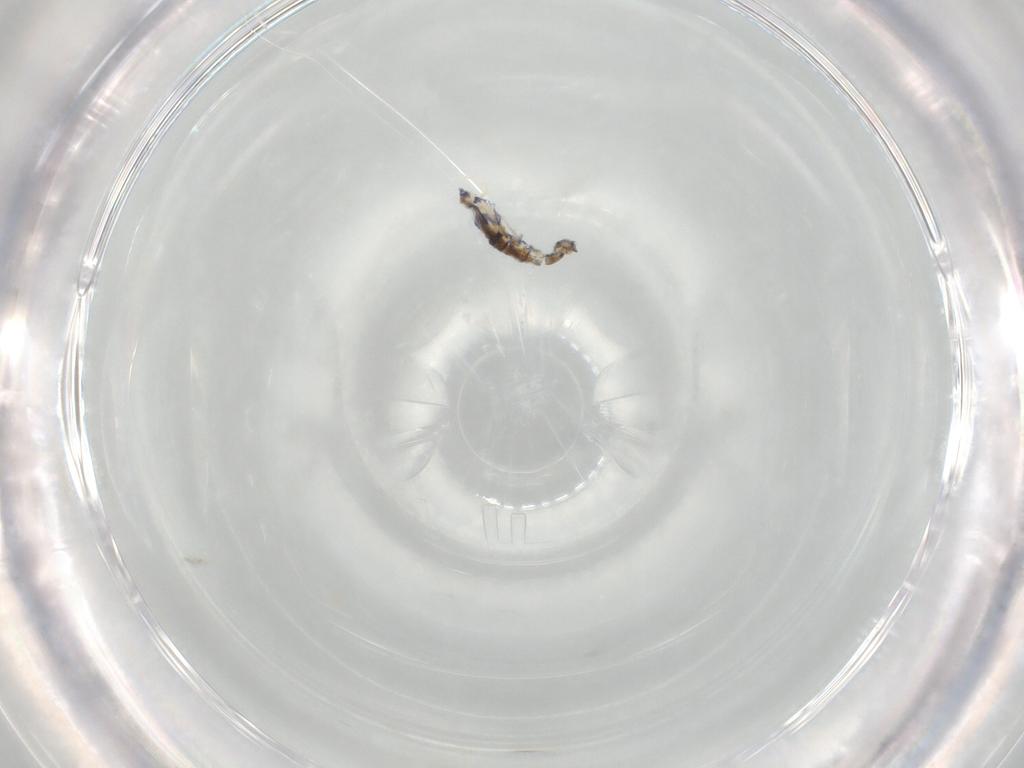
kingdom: Animalia
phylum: Arthropoda
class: Collembola
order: Entomobryomorpha
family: Entomobryidae
